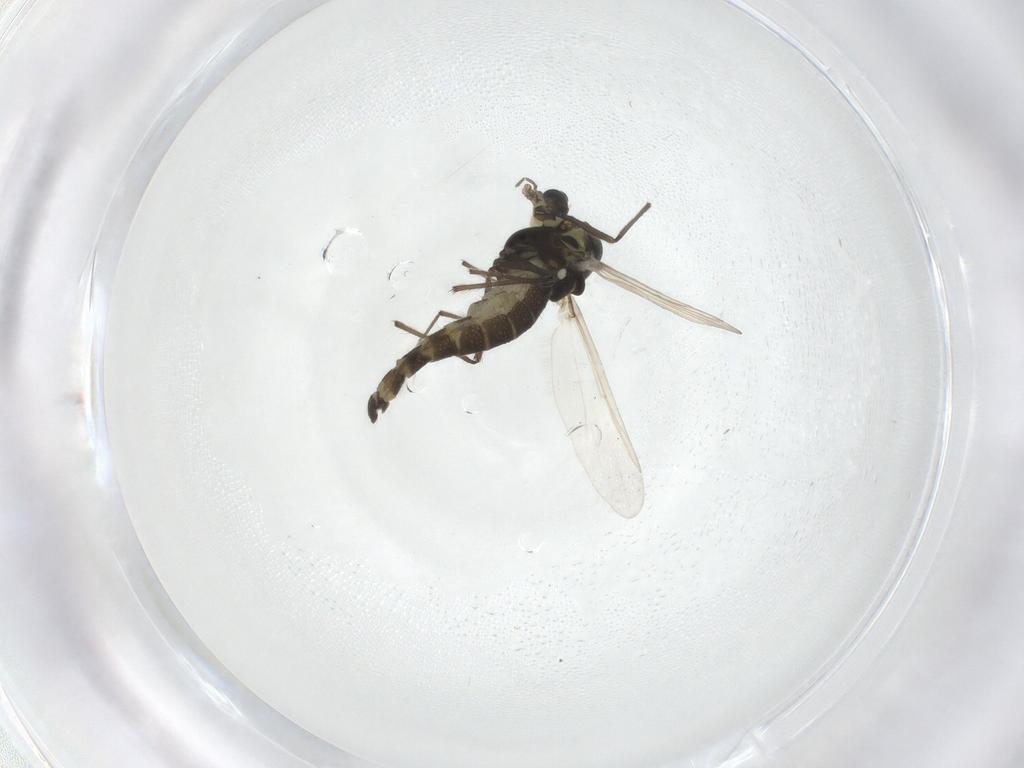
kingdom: Animalia
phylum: Arthropoda
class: Insecta
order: Diptera
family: Chironomidae
